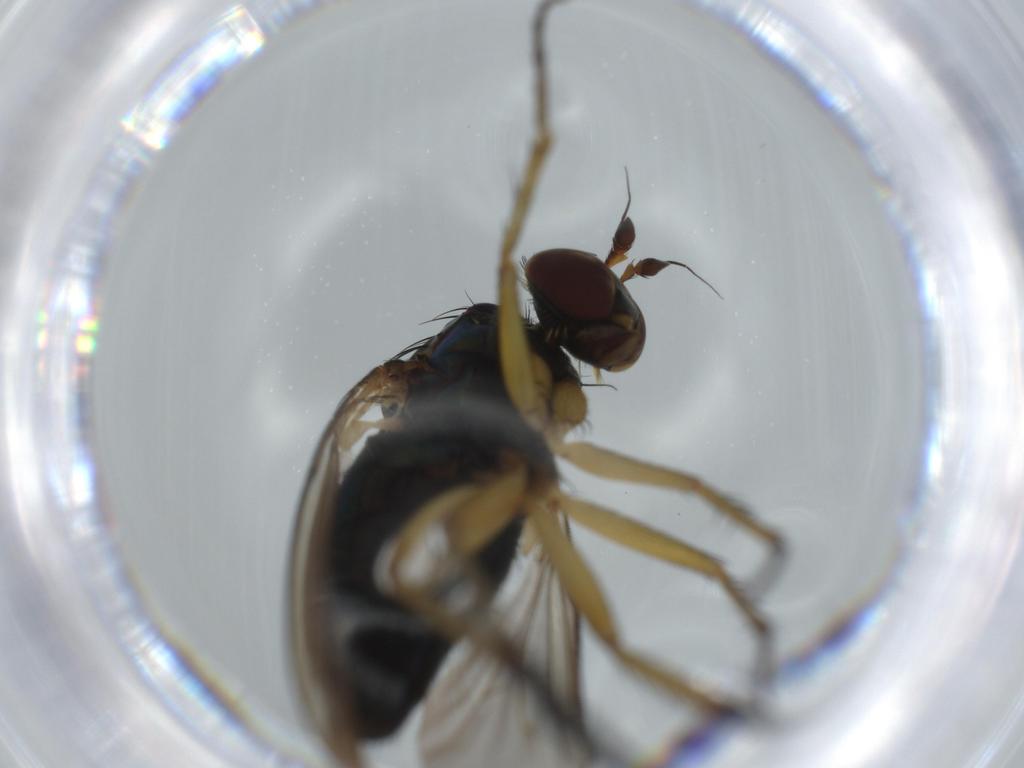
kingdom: Animalia
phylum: Arthropoda
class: Insecta
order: Diptera
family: Dolichopodidae
